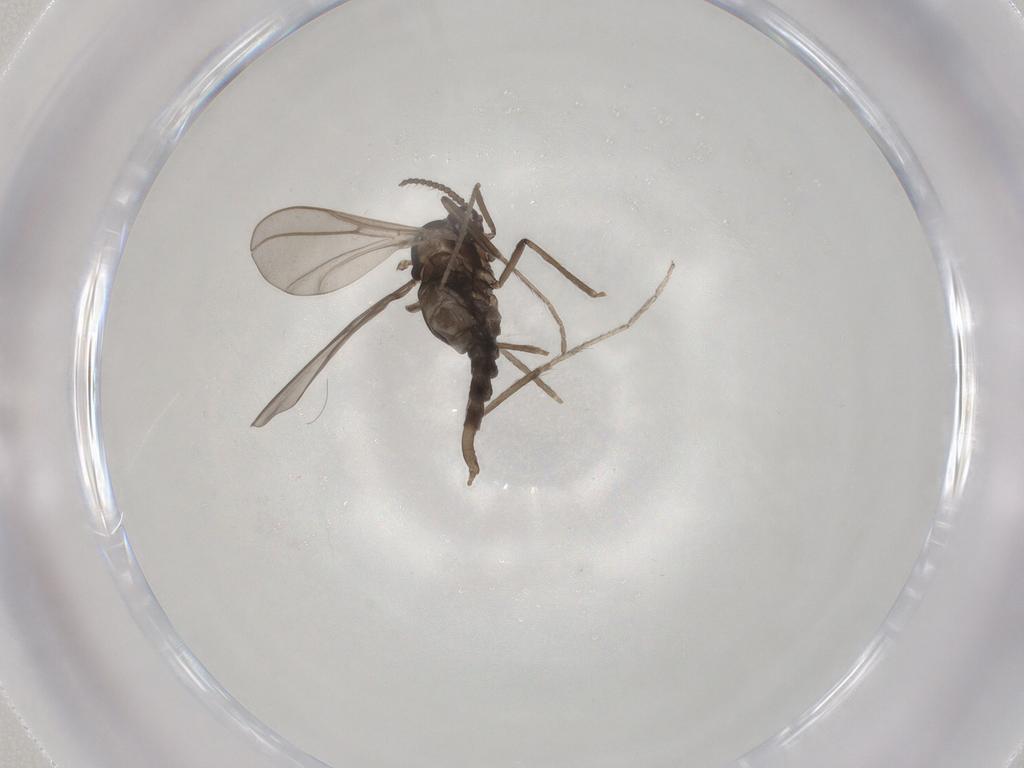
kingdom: Animalia
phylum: Arthropoda
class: Insecta
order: Diptera
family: Cecidomyiidae
